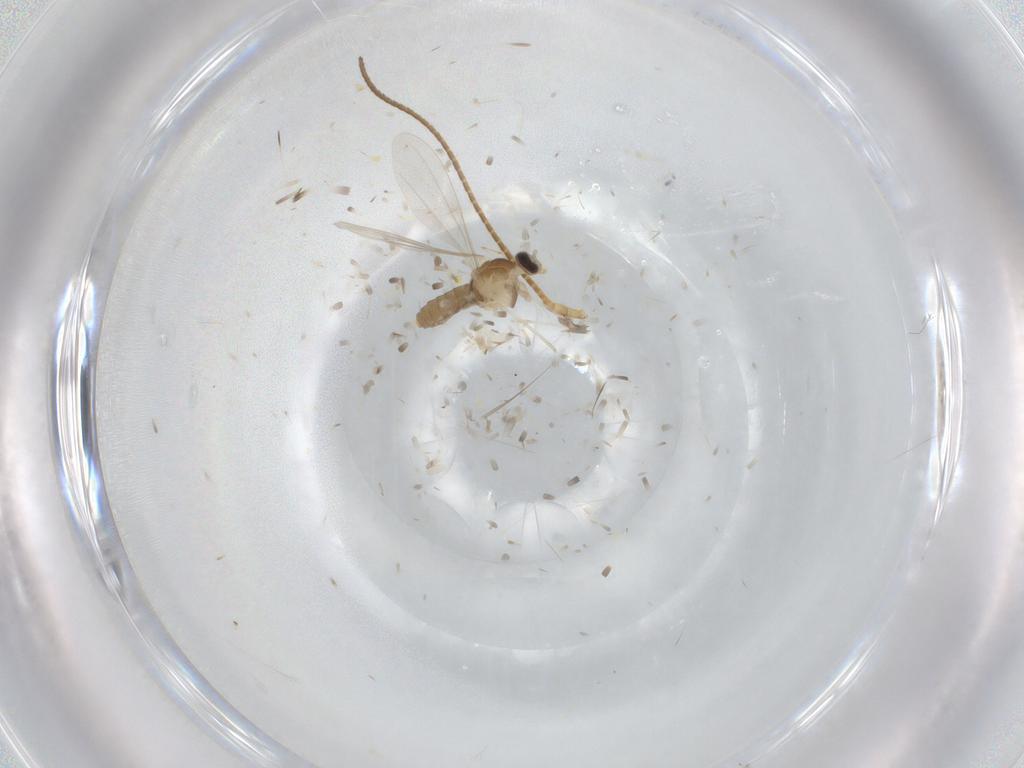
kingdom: Animalia
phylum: Arthropoda
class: Insecta
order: Diptera
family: Cecidomyiidae
